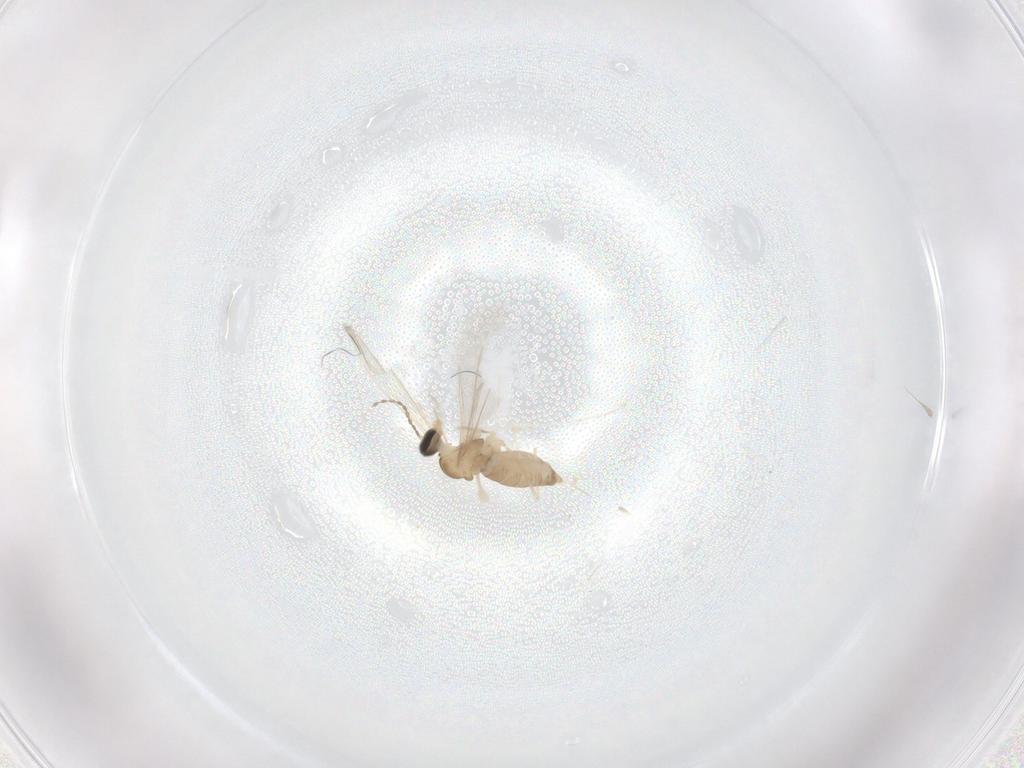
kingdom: Animalia
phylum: Arthropoda
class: Insecta
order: Diptera
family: Cecidomyiidae
